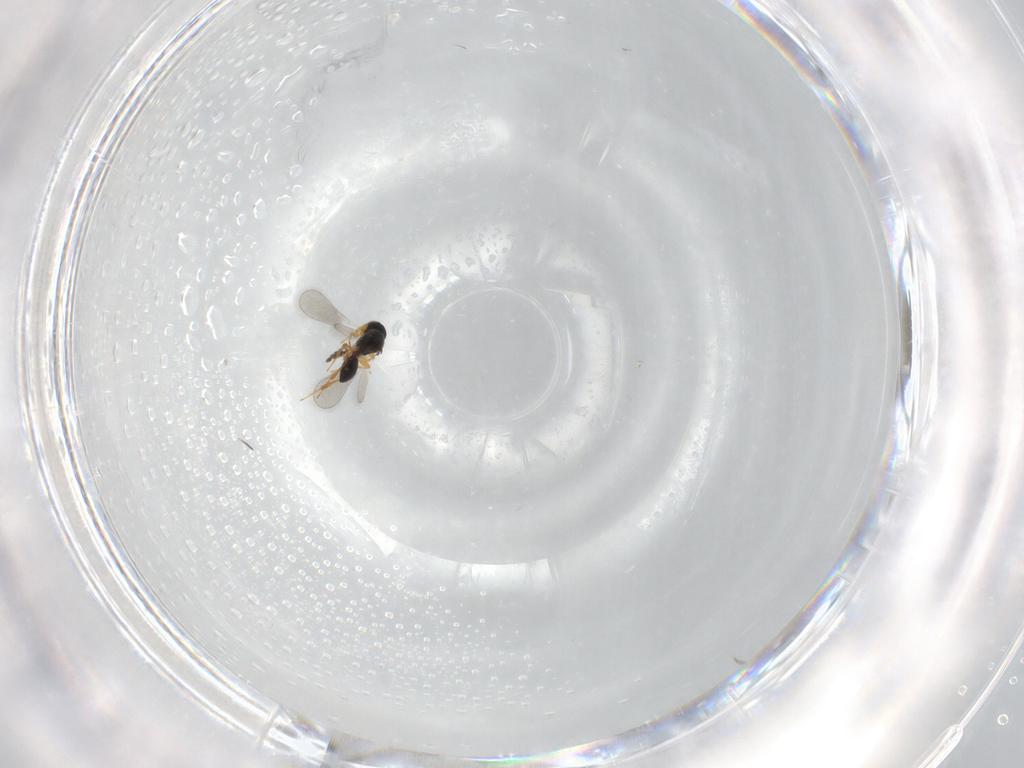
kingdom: Animalia
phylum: Arthropoda
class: Insecta
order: Hymenoptera
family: Platygastridae
